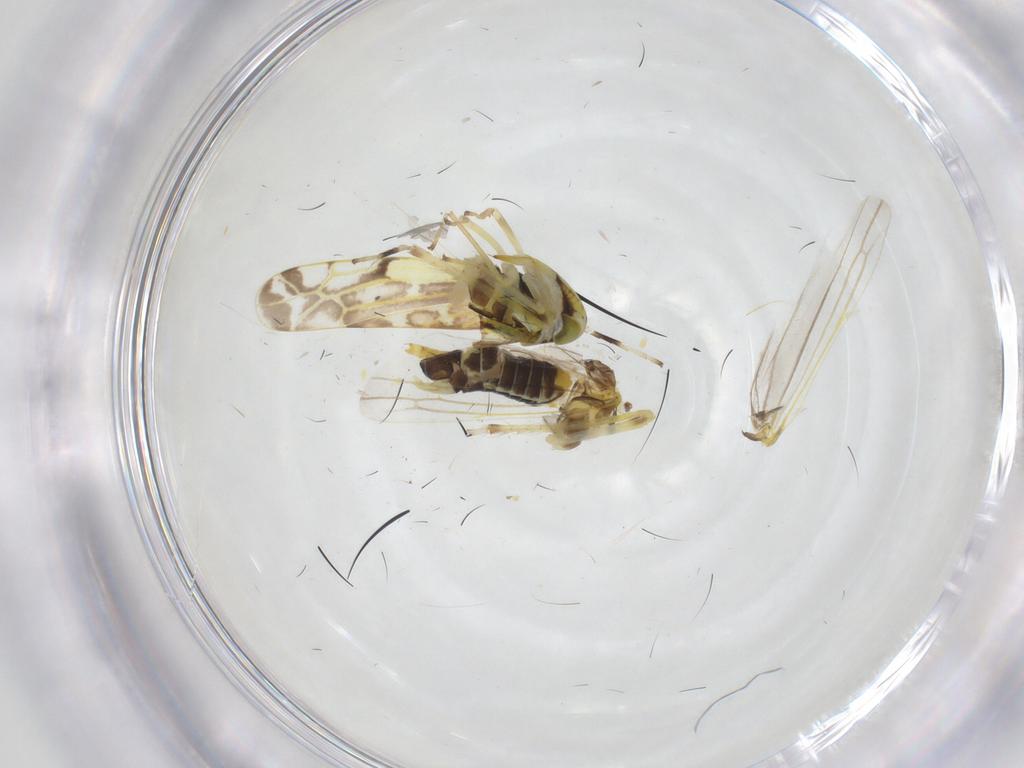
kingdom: Animalia
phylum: Arthropoda
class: Insecta
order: Hemiptera
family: Cicadellidae
